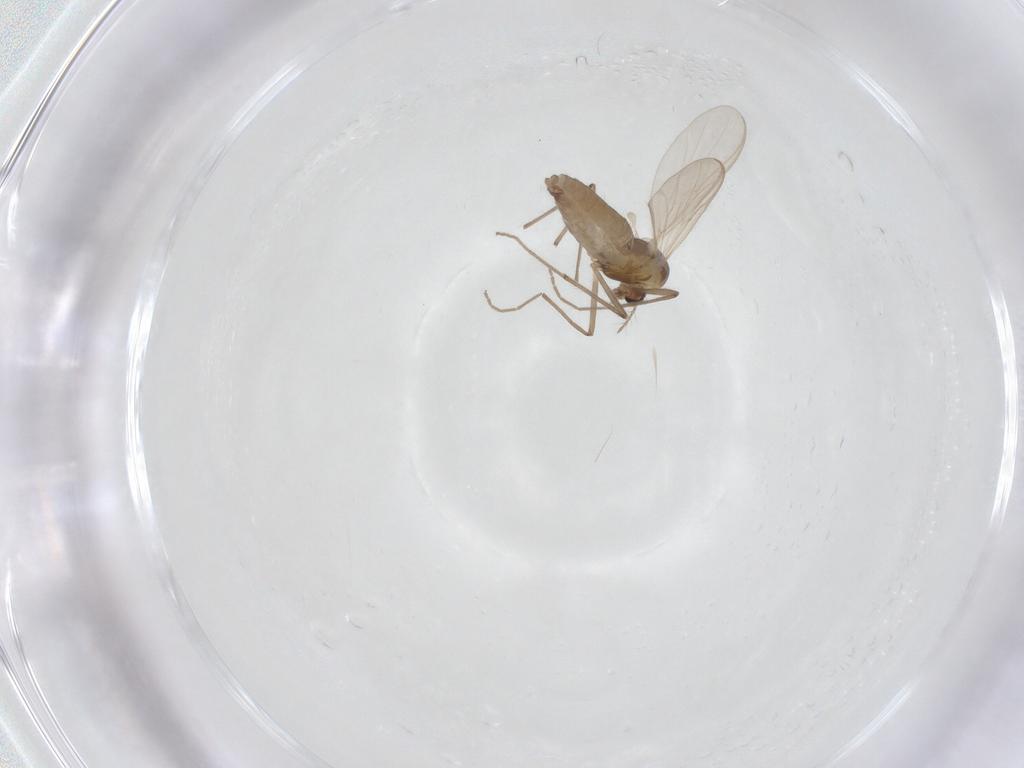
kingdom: Animalia
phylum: Arthropoda
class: Insecta
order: Diptera
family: Chironomidae
